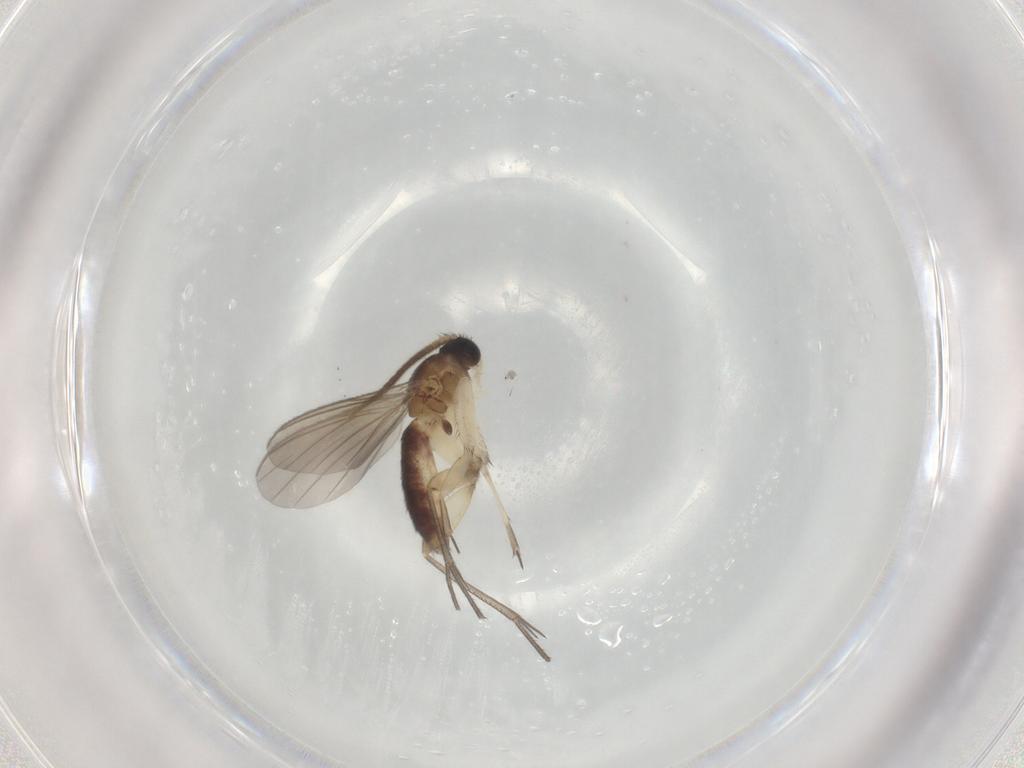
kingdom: Animalia
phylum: Arthropoda
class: Insecta
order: Diptera
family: Mycetophilidae
